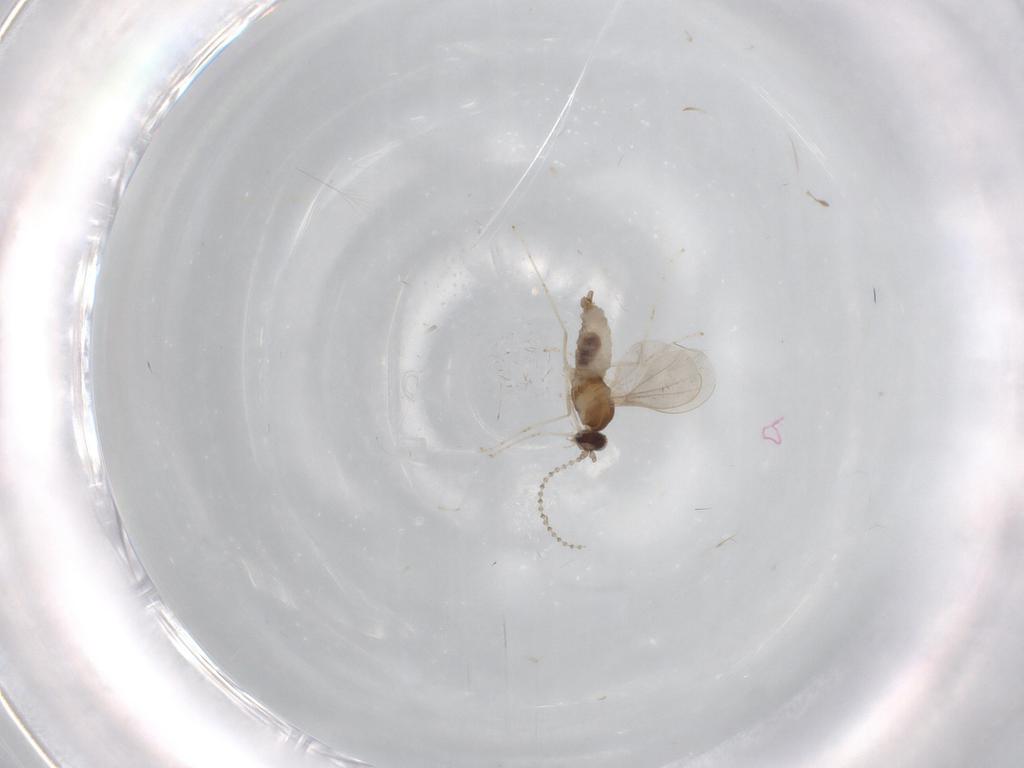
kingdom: Animalia
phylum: Arthropoda
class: Insecta
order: Diptera
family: Cecidomyiidae
